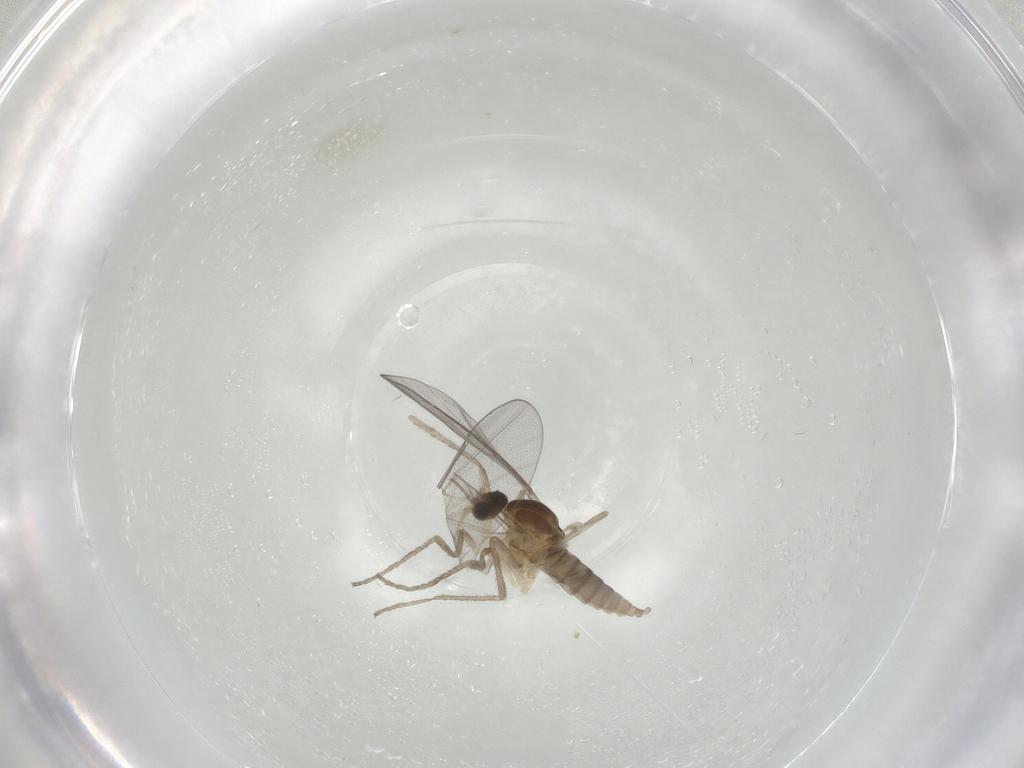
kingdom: Animalia
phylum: Arthropoda
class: Insecta
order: Diptera
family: Cecidomyiidae
